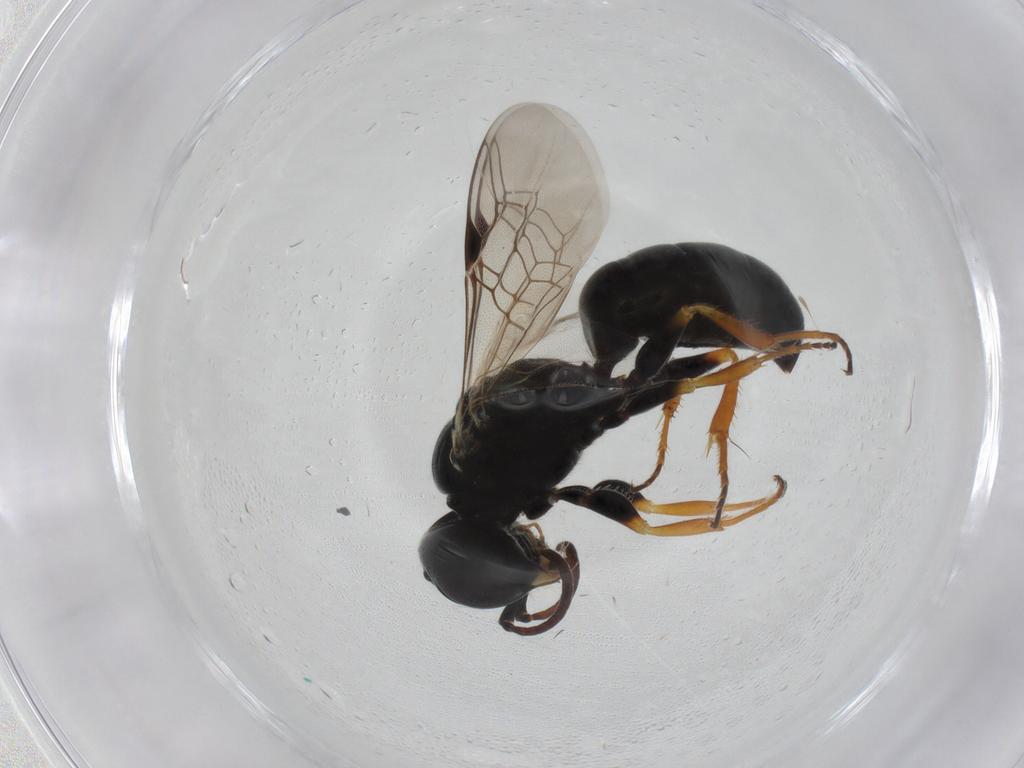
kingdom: Animalia
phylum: Arthropoda
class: Insecta
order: Hymenoptera
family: Pemphredonidae
